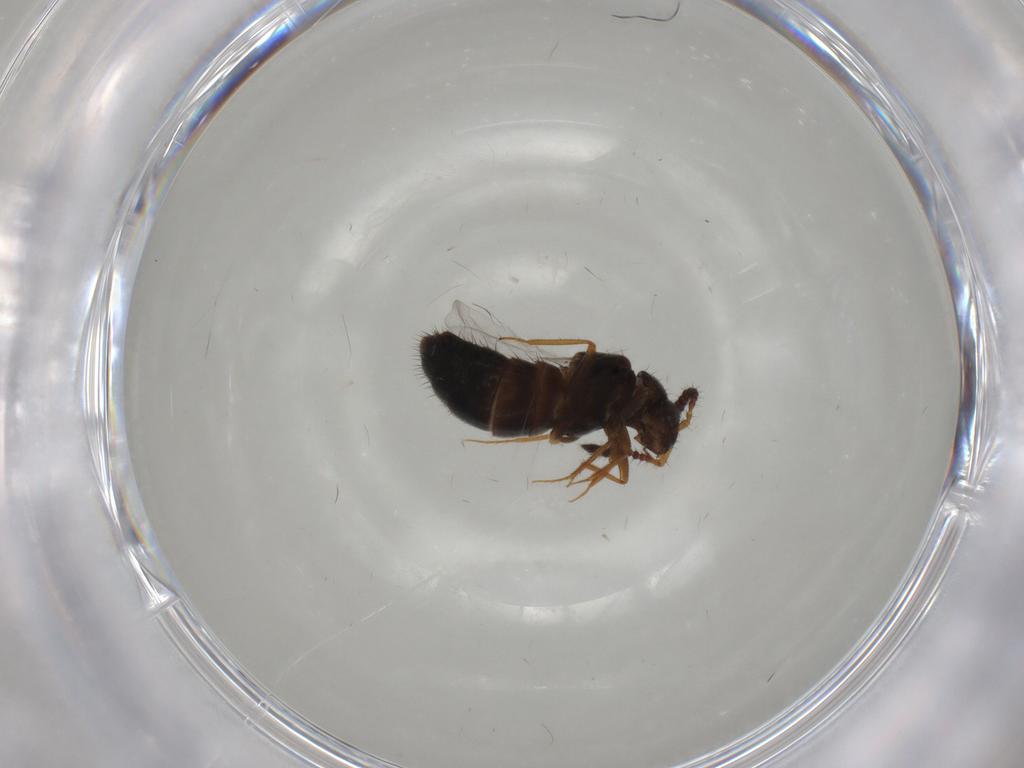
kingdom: Animalia
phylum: Arthropoda
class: Insecta
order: Coleoptera
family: Staphylinidae
